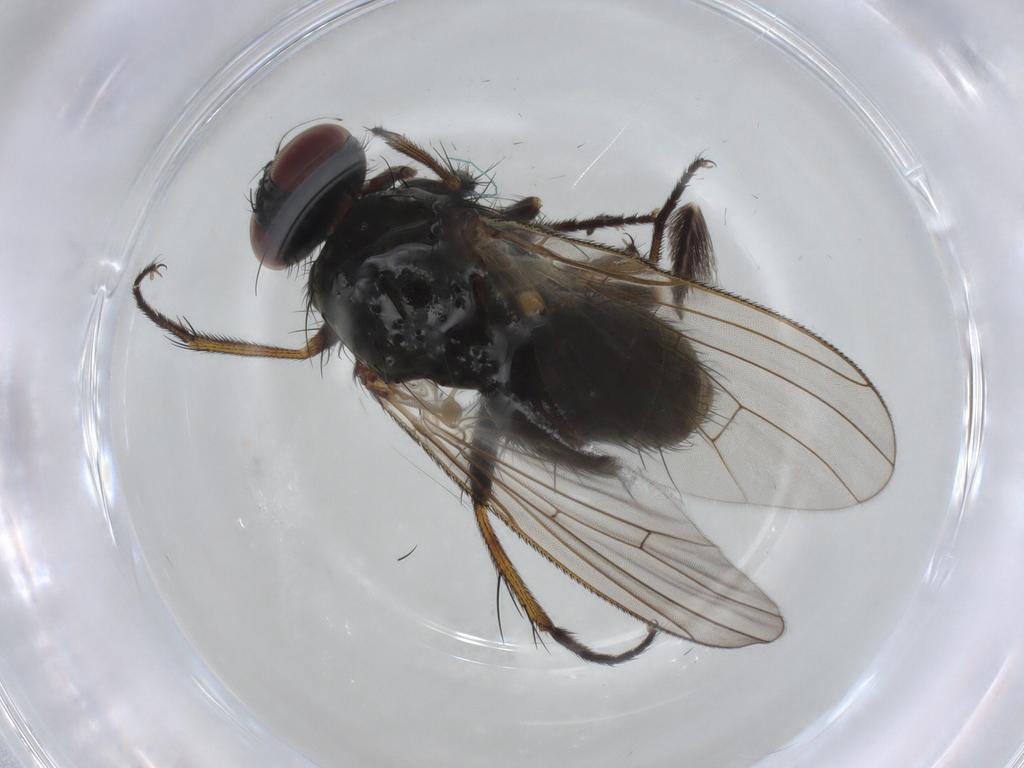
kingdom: Animalia
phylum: Arthropoda
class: Insecta
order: Diptera
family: Muscidae
